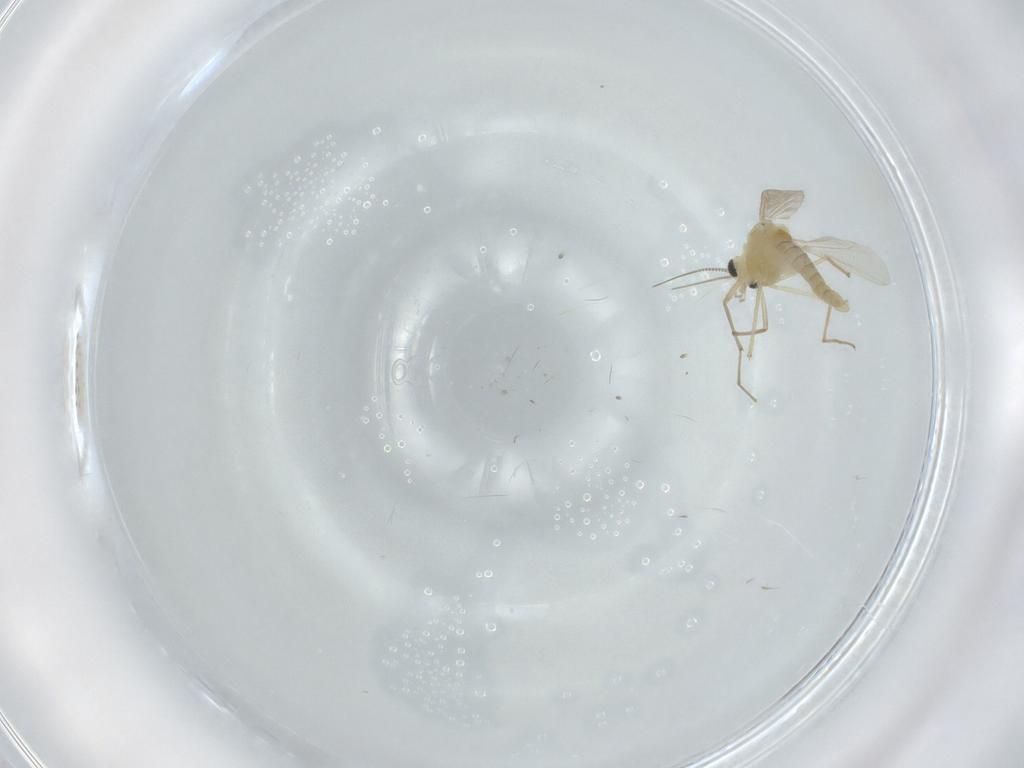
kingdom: Animalia
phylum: Arthropoda
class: Insecta
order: Diptera
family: Chironomidae
